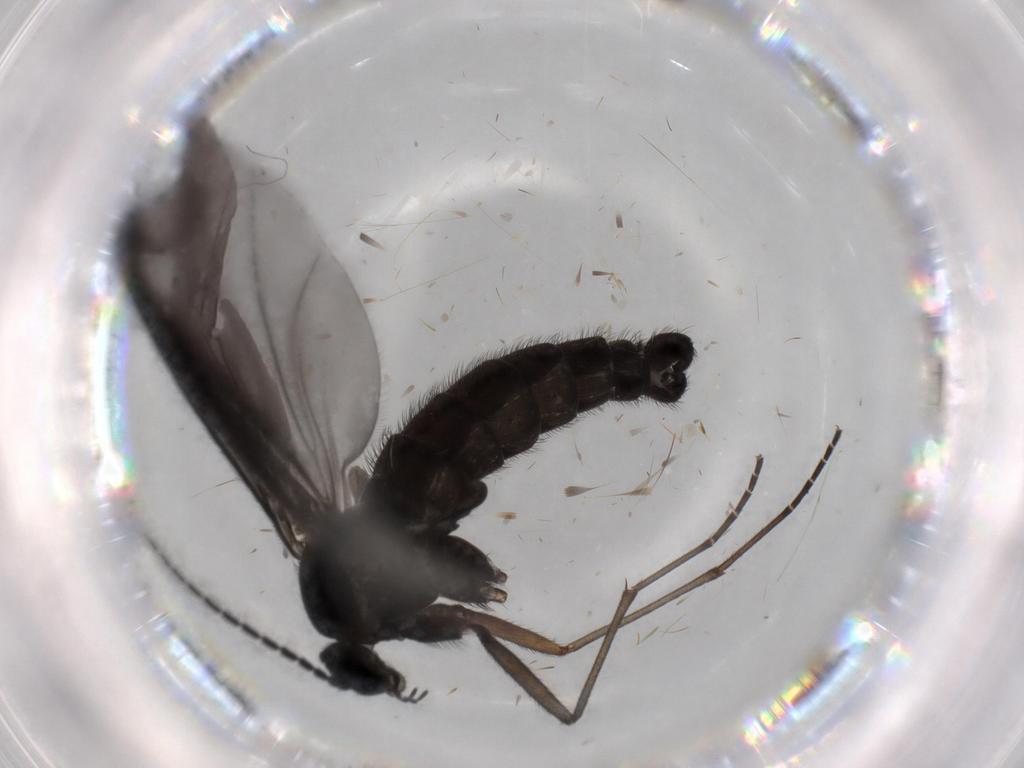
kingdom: Animalia
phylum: Arthropoda
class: Insecta
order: Diptera
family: Sciaridae
